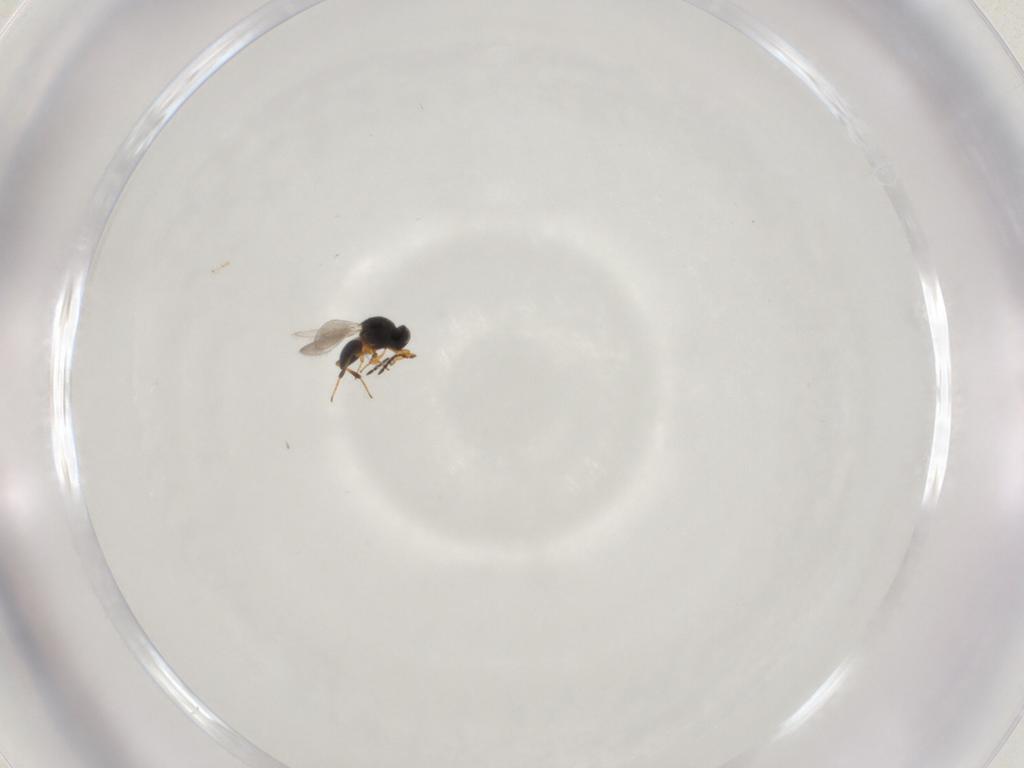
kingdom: Animalia
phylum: Arthropoda
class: Insecta
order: Hymenoptera
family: Platygastridae
